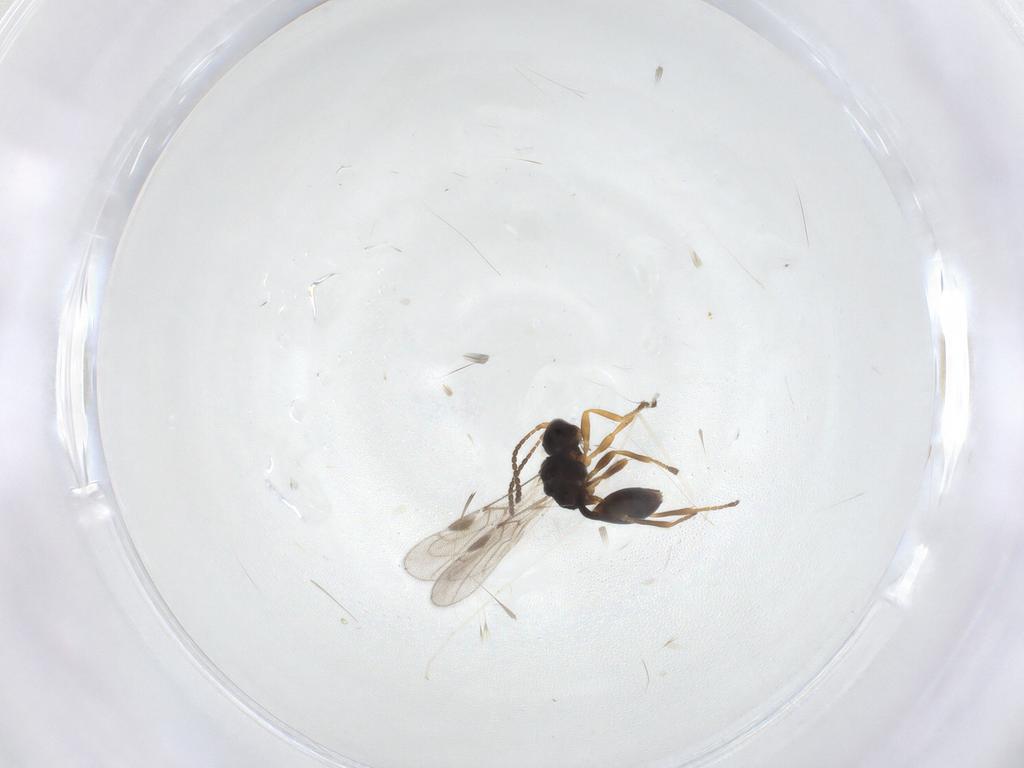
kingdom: Animalia
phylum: Arthropoda
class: Insecta
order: Hymenoptera
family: Braconidae
